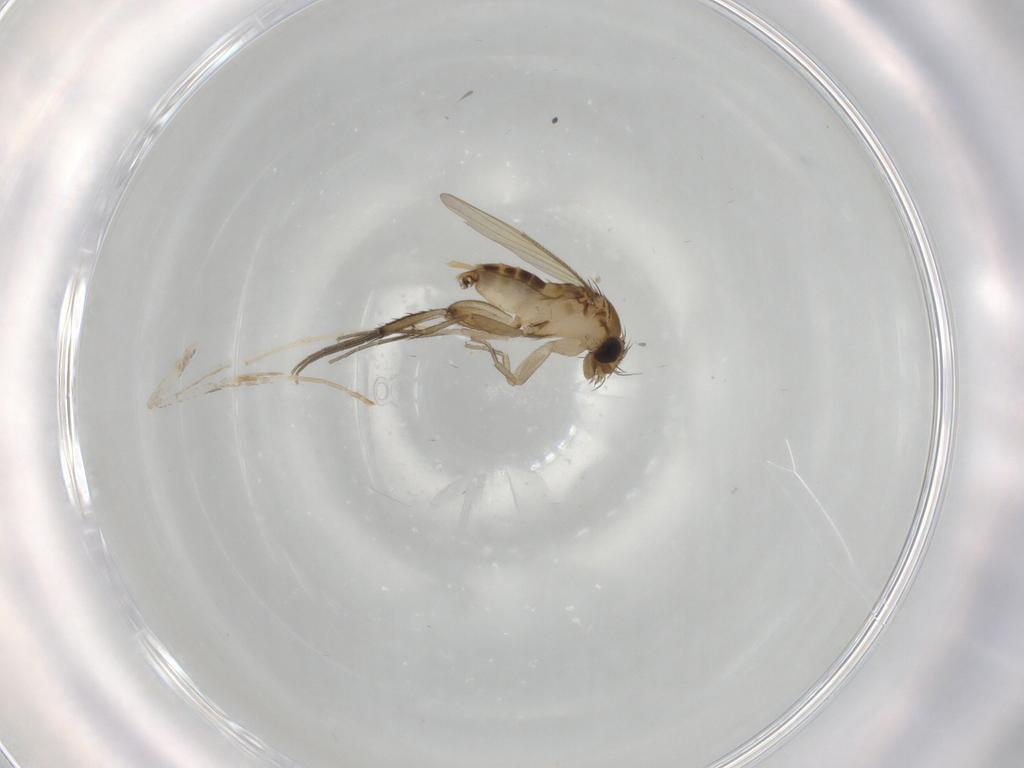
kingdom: Animalia
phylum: Arthropoda
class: Insecta
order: Diptera
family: Phoridae
